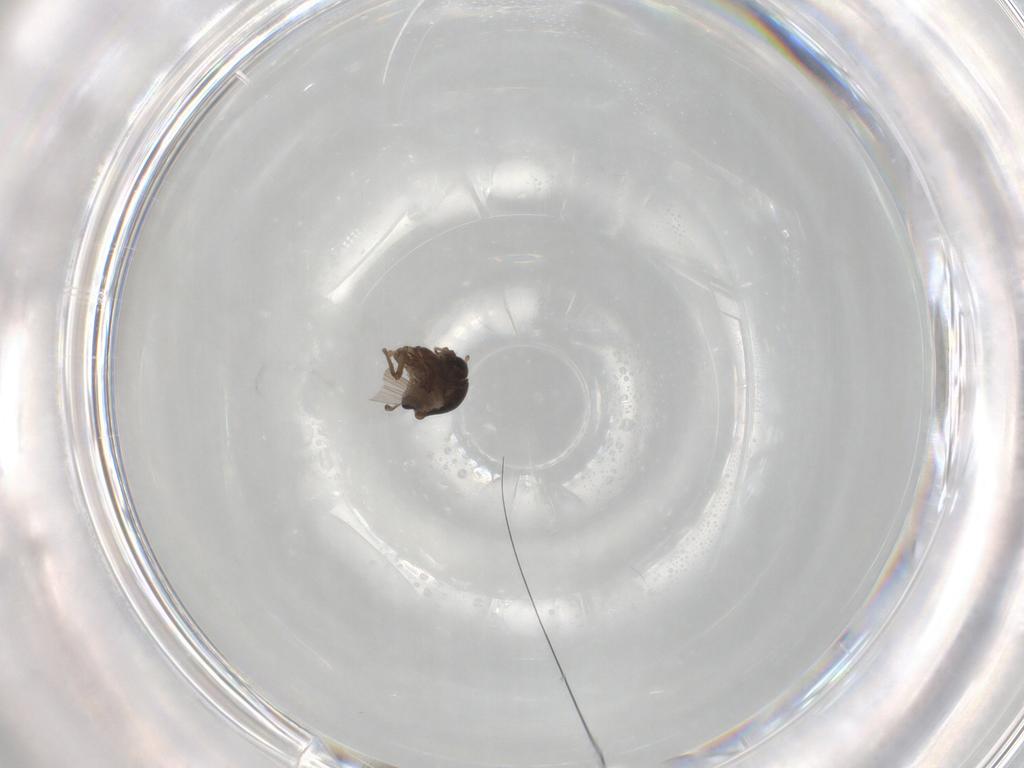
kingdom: Animalia
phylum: Arthropoda
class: Insecta
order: Diptera
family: Chironomidae
